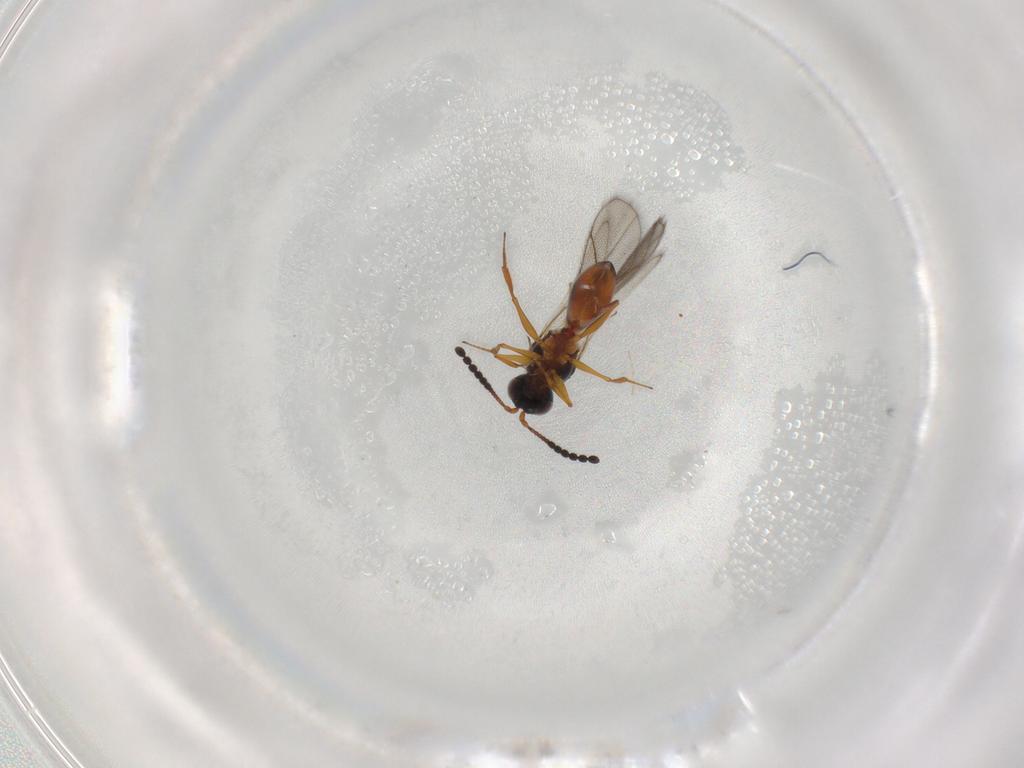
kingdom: Animalia
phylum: Arthropoda
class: Insecta
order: Hymenoptera
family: Figitidae
